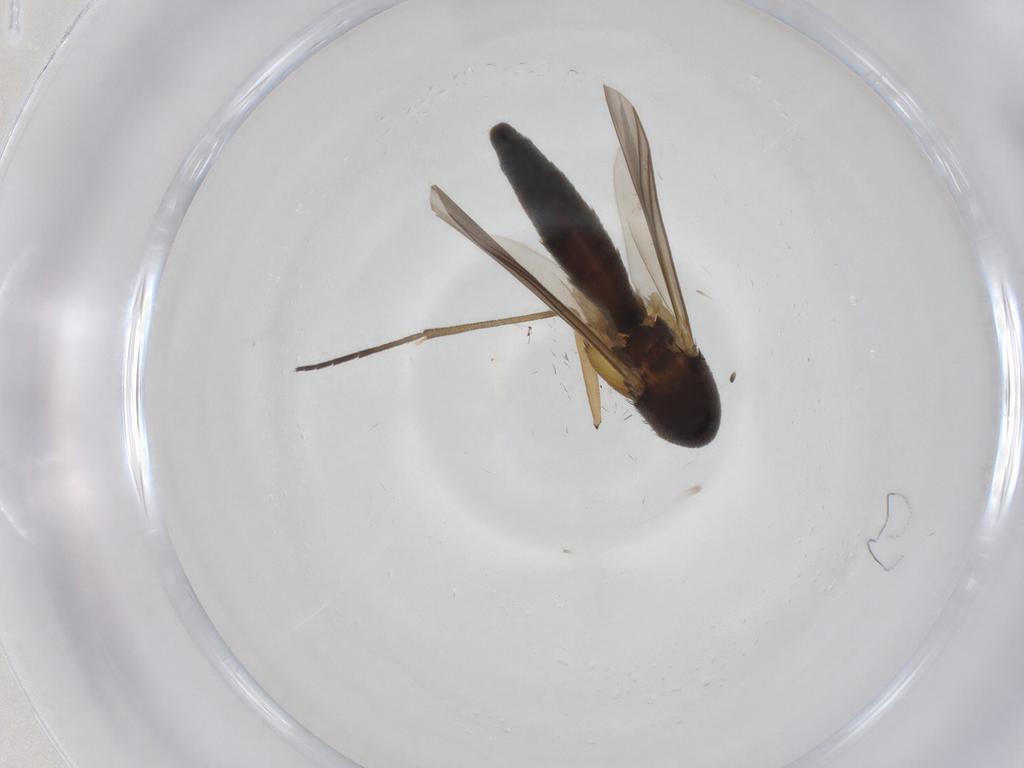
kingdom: Animalia
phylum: Arthropoda
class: Insecta
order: Diptera
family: Mycetophilidae
